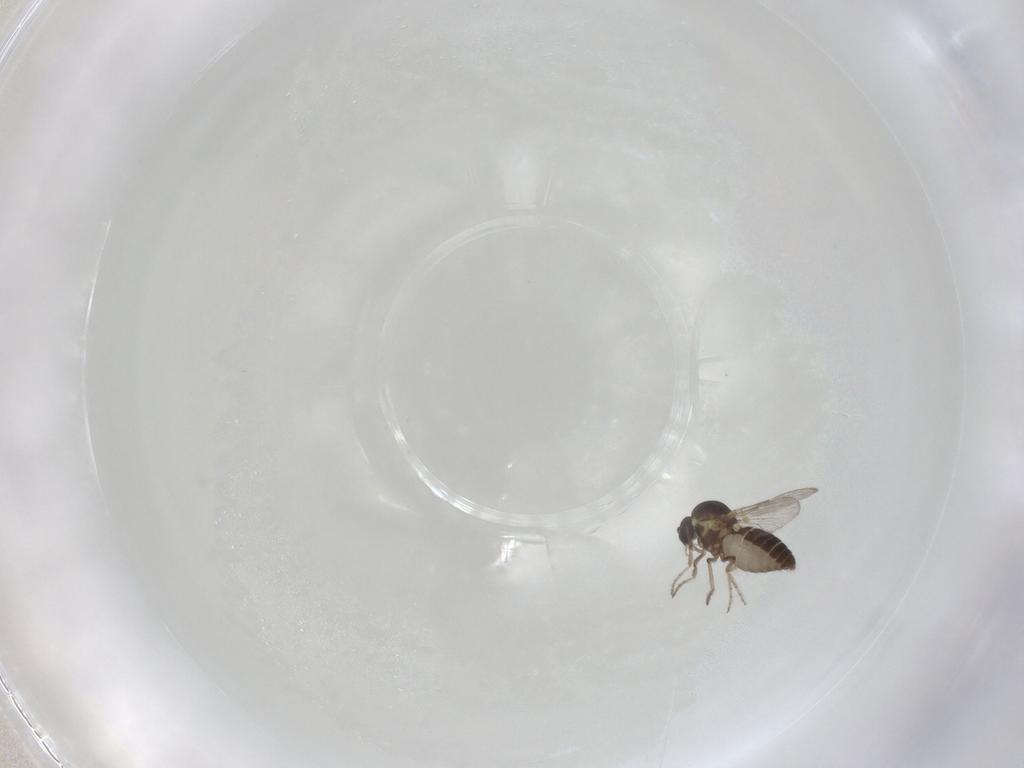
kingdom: Animalia
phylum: Arthropoda
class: Insecta
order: Diptera
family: Ceratopogonidae
